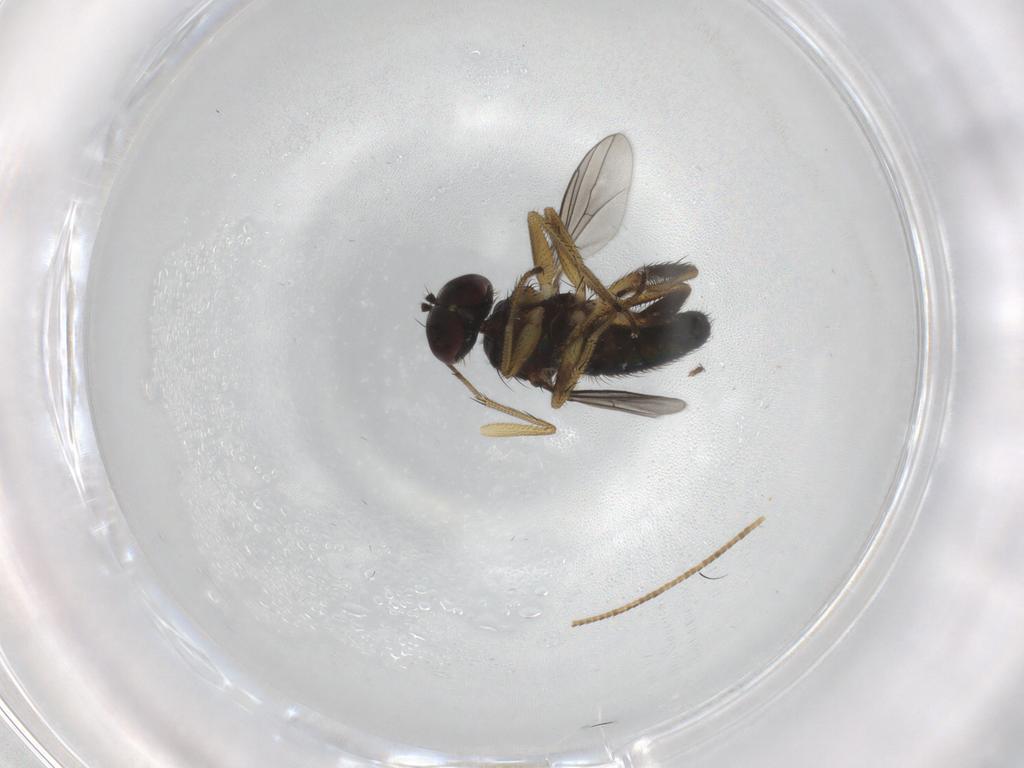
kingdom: Animalia
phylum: Arthropoda
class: Insecta
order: Diptera
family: Dolichopodidae
